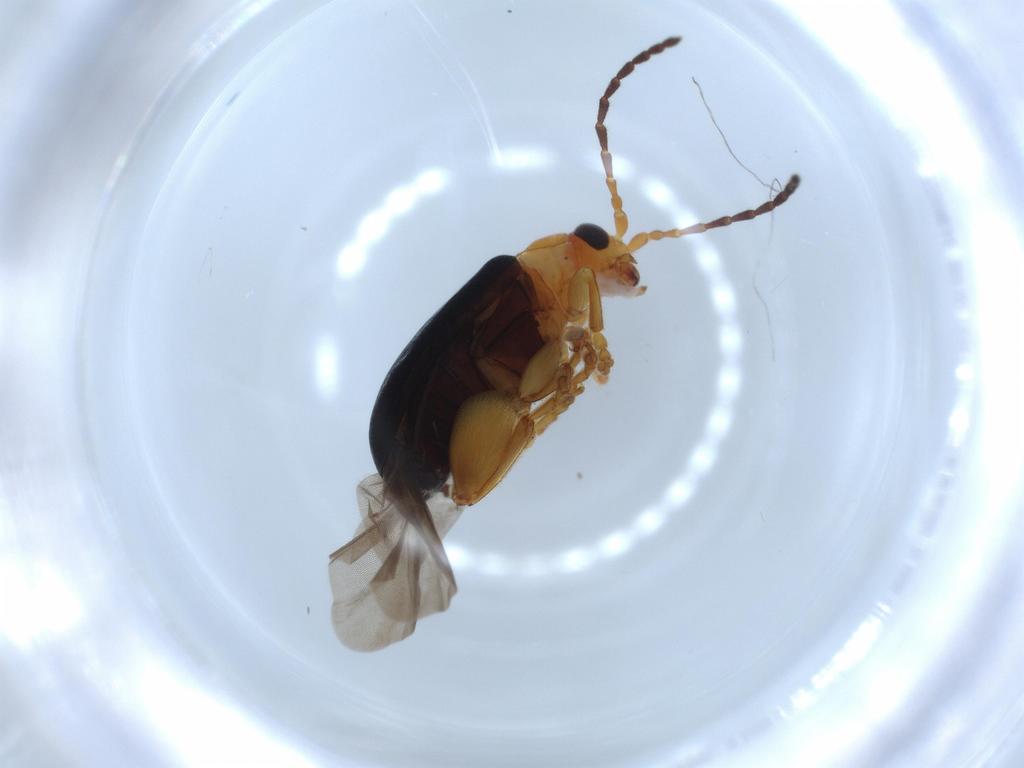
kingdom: Animalia
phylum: Arthropoda
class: Insecta
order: Coleoptera
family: Chrysomelidae
